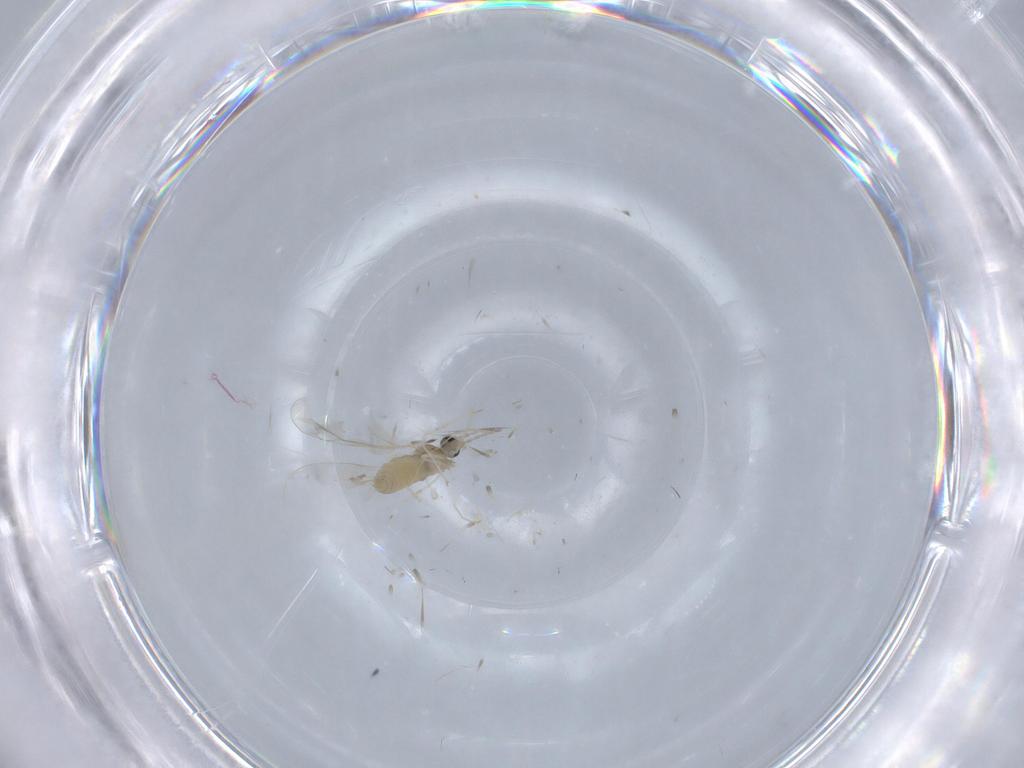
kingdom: Animalia
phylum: Arthropoda
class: Insecta
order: Diptera
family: Cecidomyiidae
